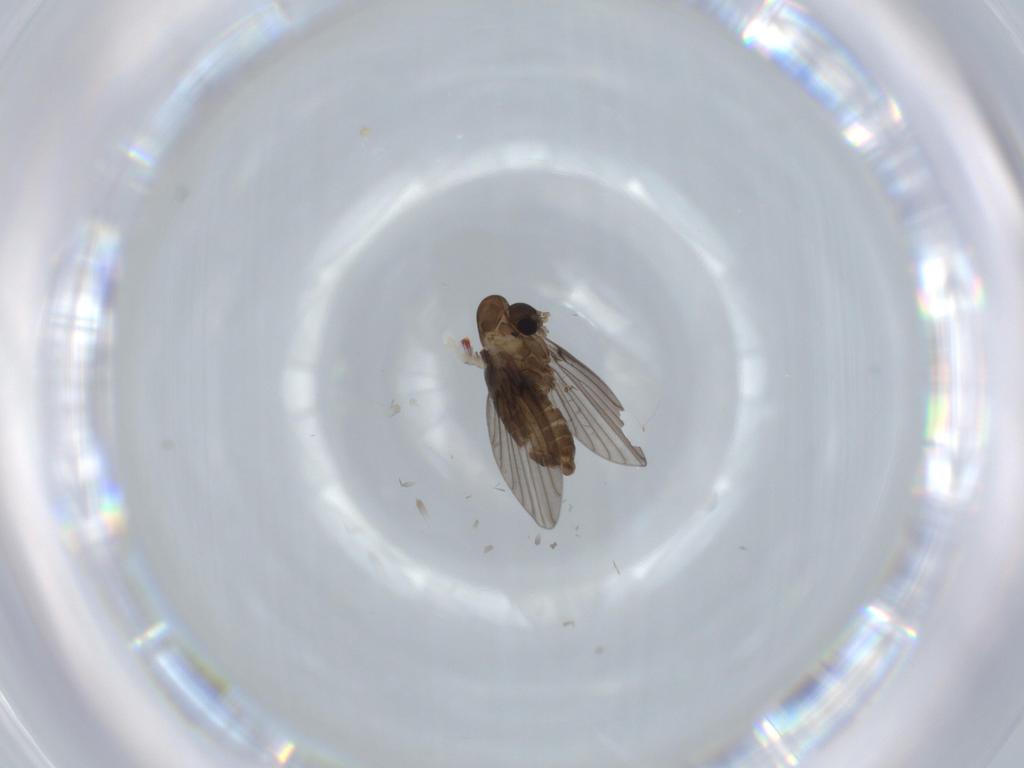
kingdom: Animalia
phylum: Arthropoda
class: Insecta
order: Diptera
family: Psychodidae
